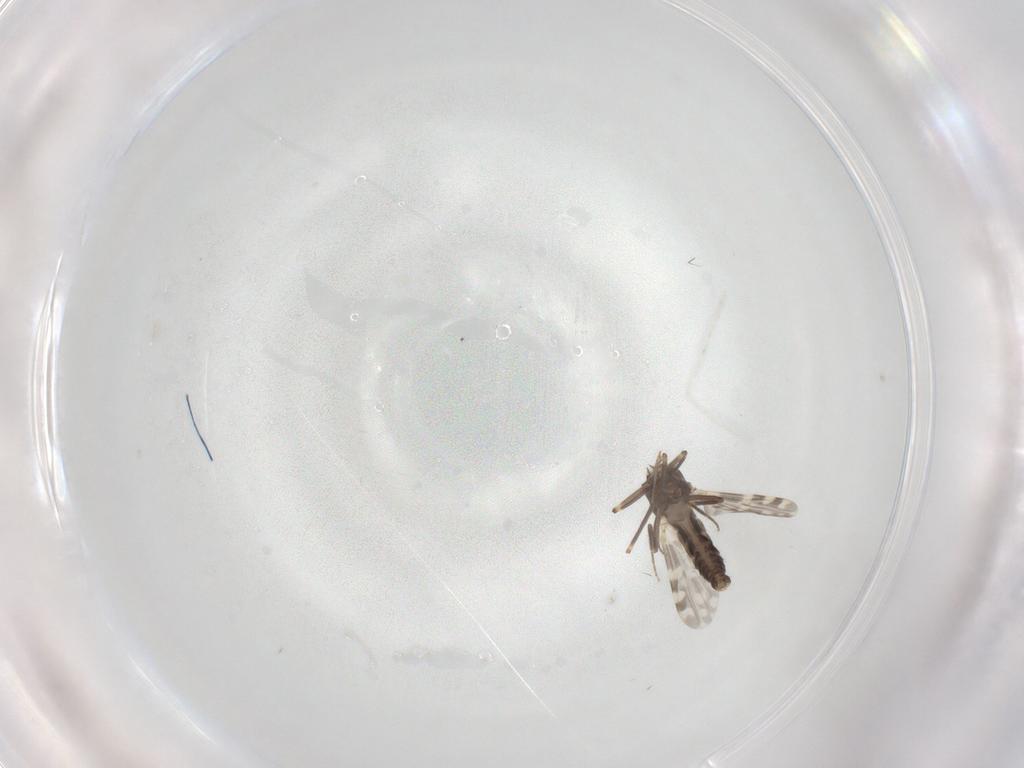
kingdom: Animalia
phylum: Arthropoda
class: Insecta
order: Diptera
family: Ceratopogonidae
